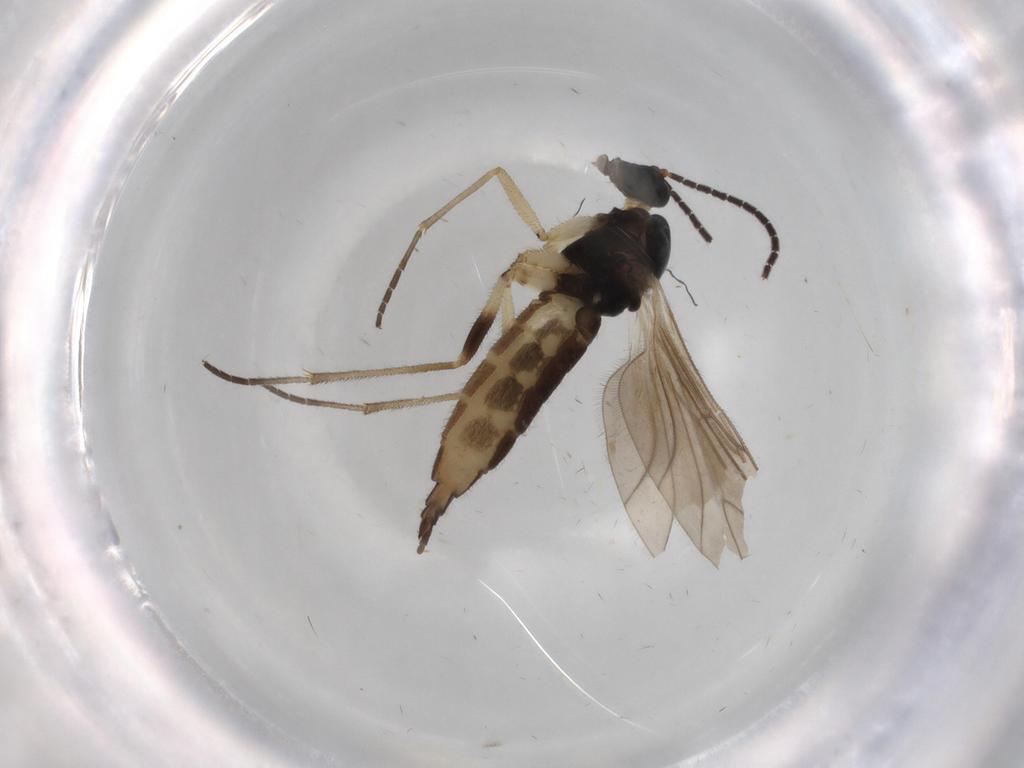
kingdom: Animalia
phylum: Arthropoda
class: Insecta
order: Diptera
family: Sciaridae
